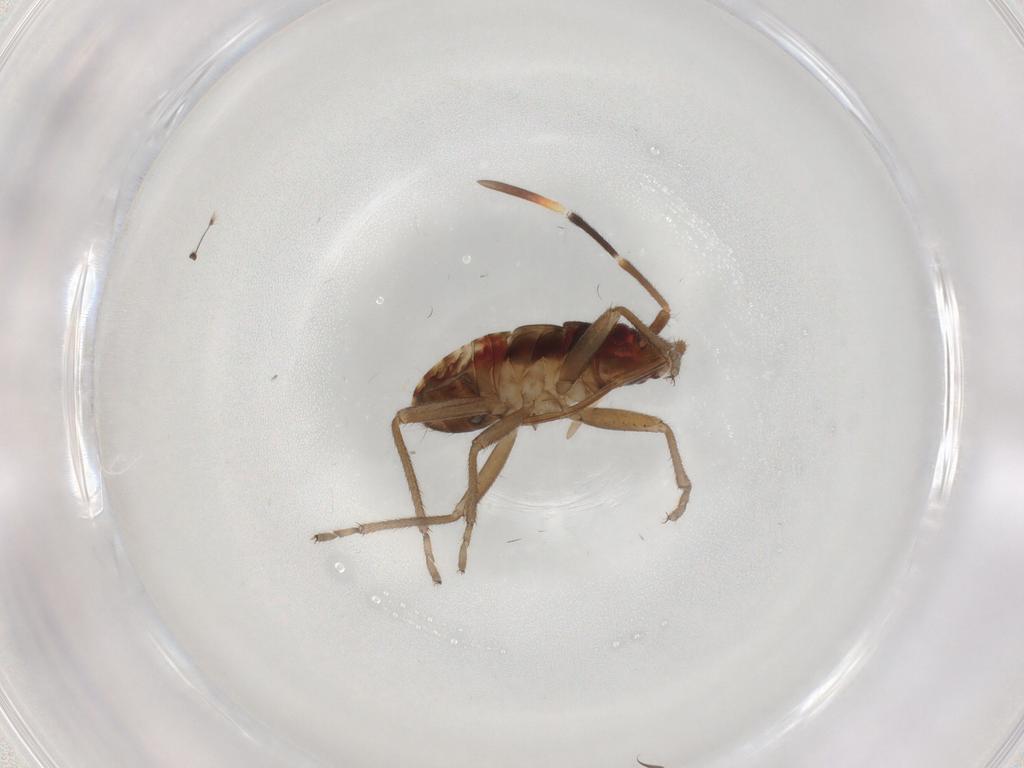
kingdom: Animalia
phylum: Arthropoda
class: Insecta
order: Hemiptera
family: Rhyparochromidae
